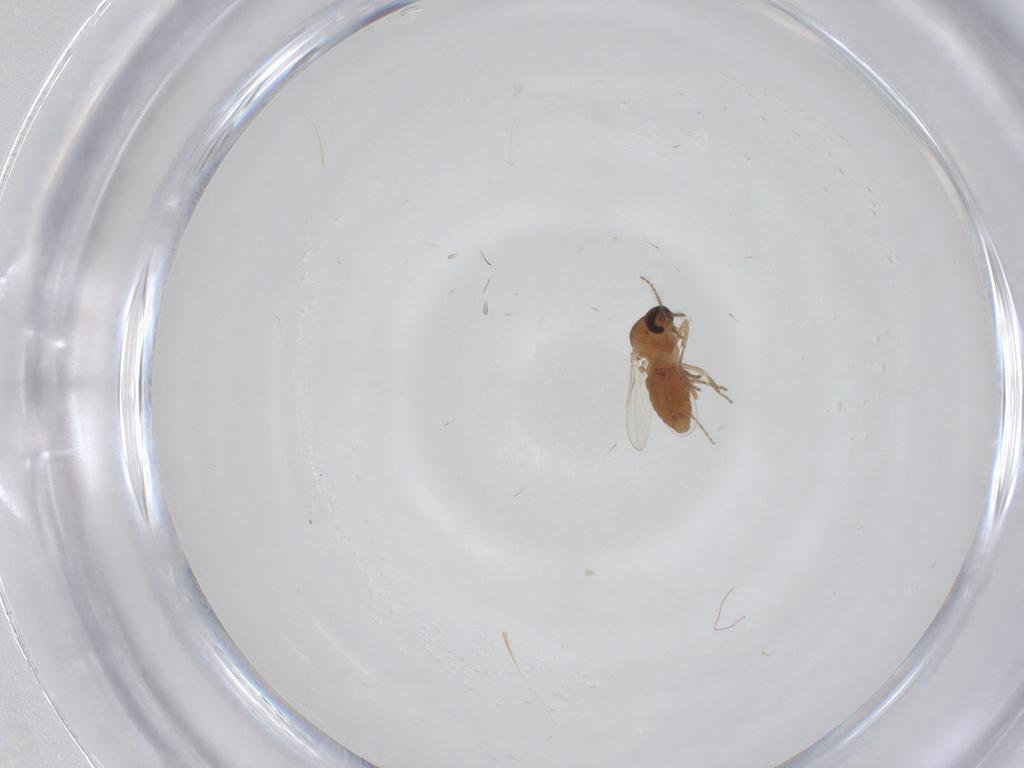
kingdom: Animalia
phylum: Arthropoda
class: Insecta
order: Diptera
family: Ceratopogonidae
